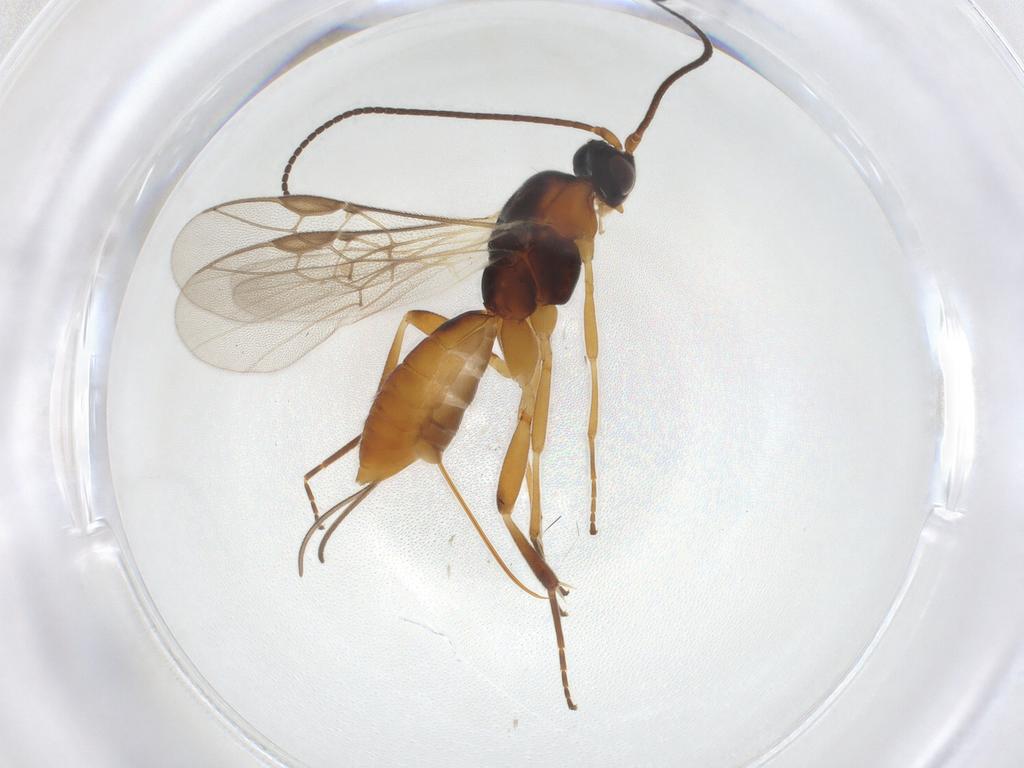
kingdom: Animalia
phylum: Arthropoda
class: Insecta
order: Hymenoptera
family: Braconidae
